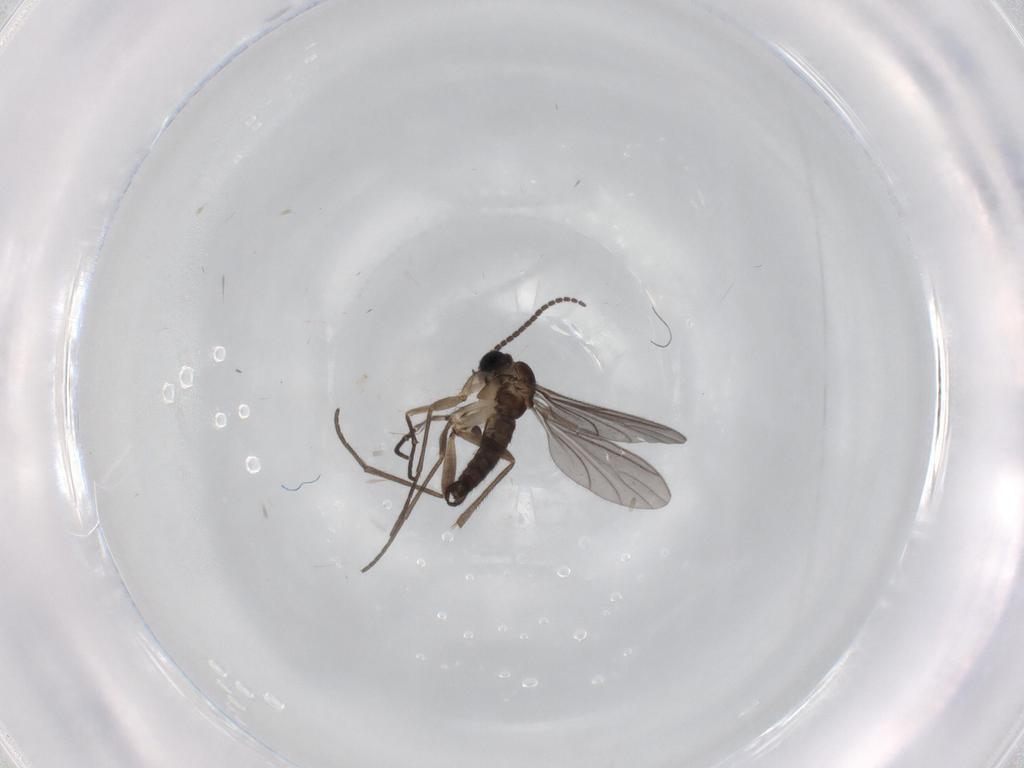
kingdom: Animalia
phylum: Arthropoda
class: Insecta
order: Diptera
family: Sciaridae
